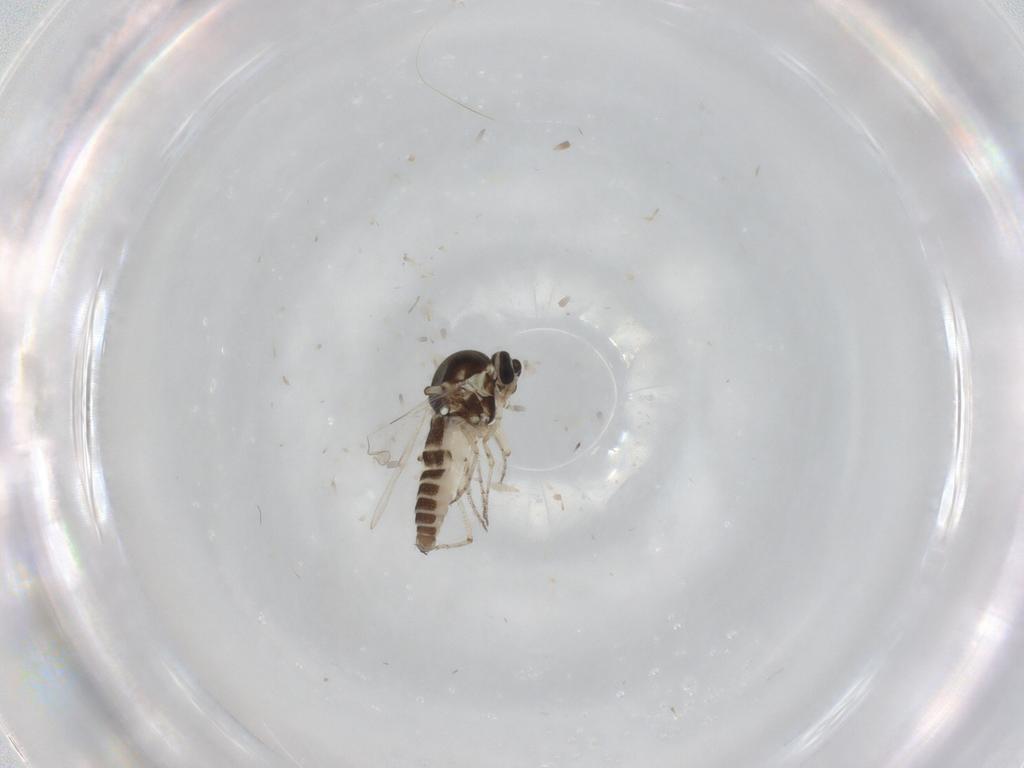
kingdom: Animalia
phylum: Arthropoda
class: Insecta
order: Diptera
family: Ceratopogonidae
